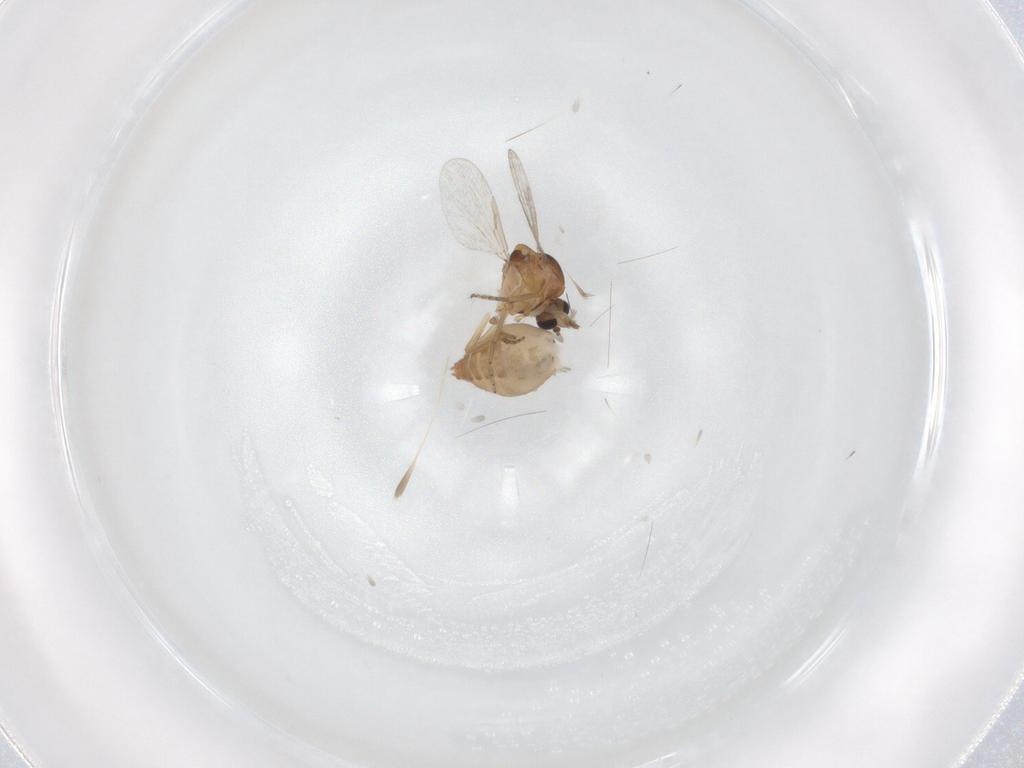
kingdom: Animalia
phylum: Arthropoda
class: Insecta
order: Diptera
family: Ceratopogonidae
